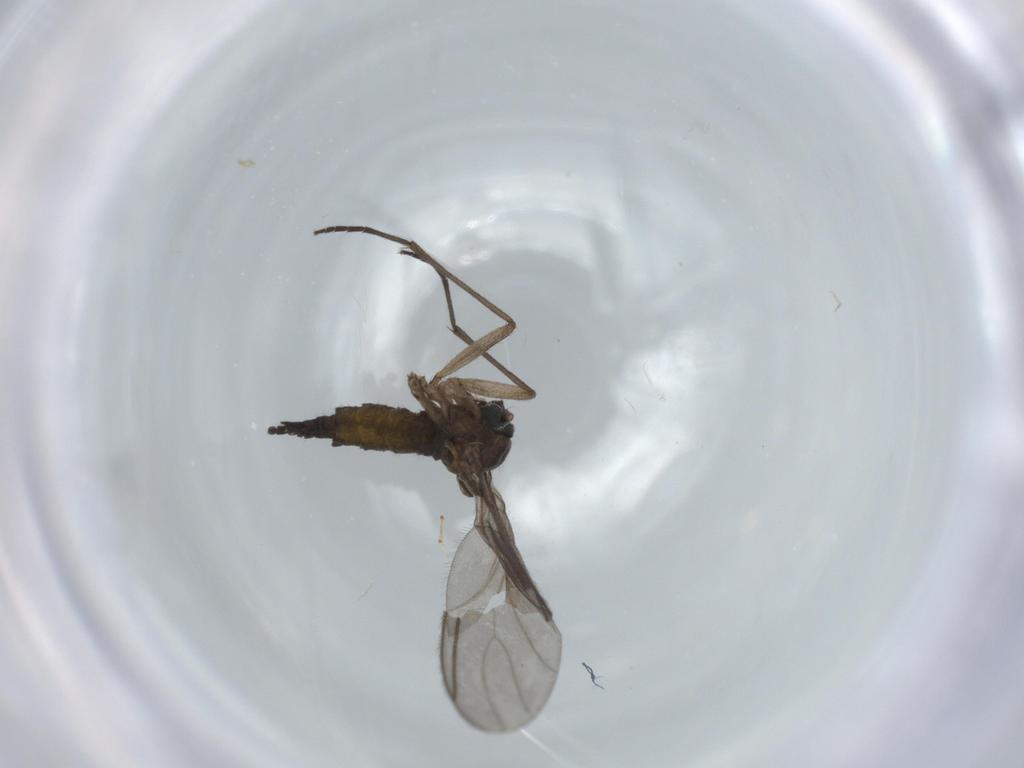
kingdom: Animalia
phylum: Arthropoda
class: Insecta
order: Diptera
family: Sciaridae
